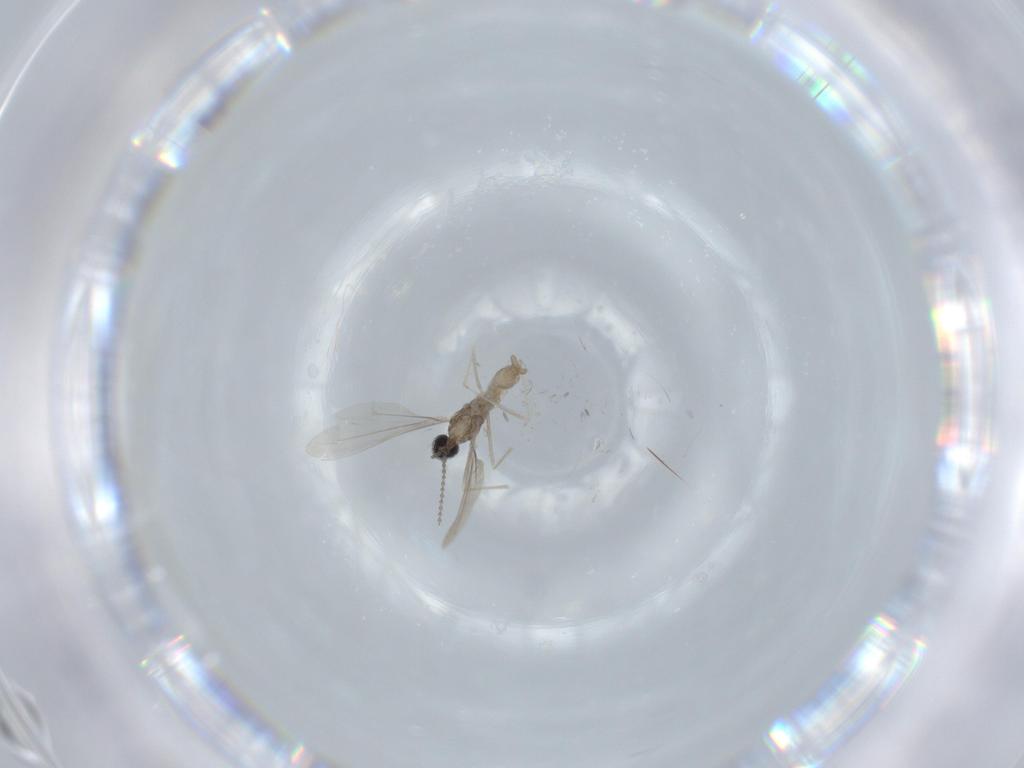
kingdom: Animalia
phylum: Arthropoda
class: Insecta
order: Diptera
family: Cecidomyiidae
